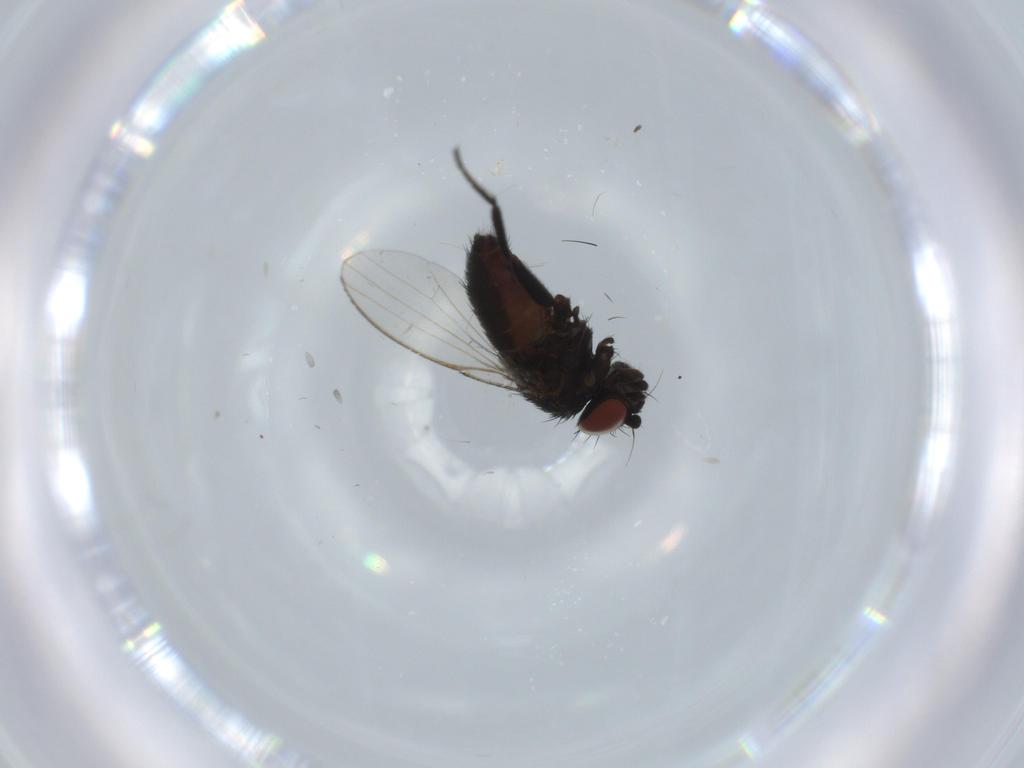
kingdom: Animalia
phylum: Arthropoda
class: Insecta
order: Diptera
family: Milichiidae
